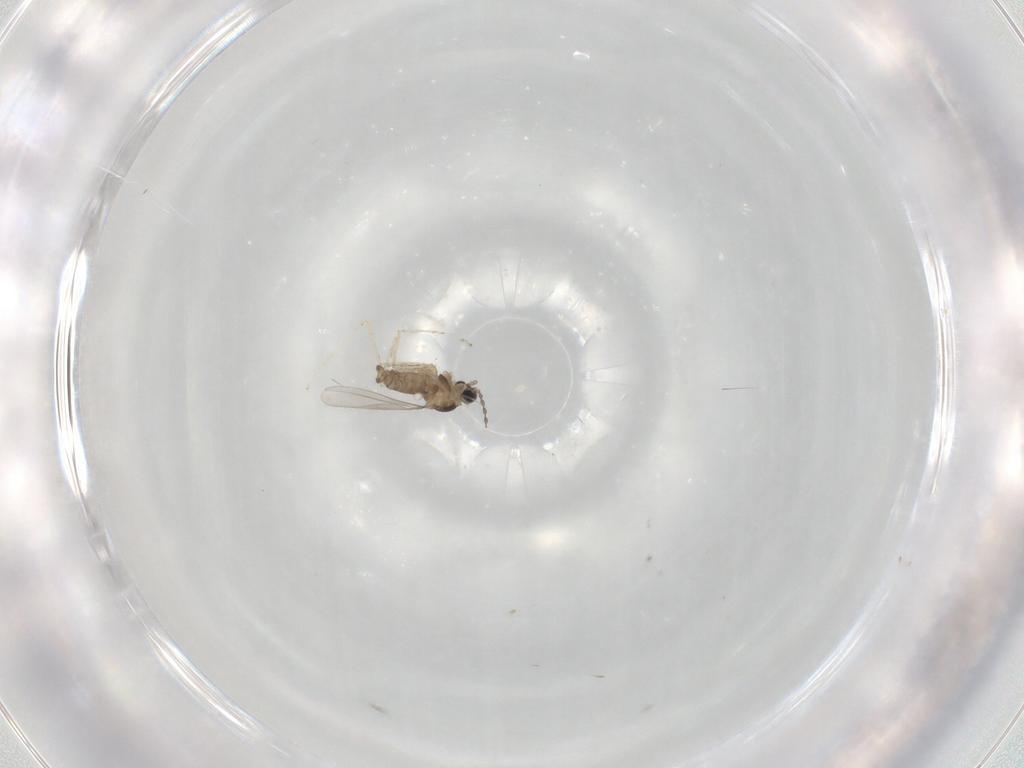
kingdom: Animalia
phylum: Arthropoda
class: Insecta
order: Diptera
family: Cecidomyiidae
